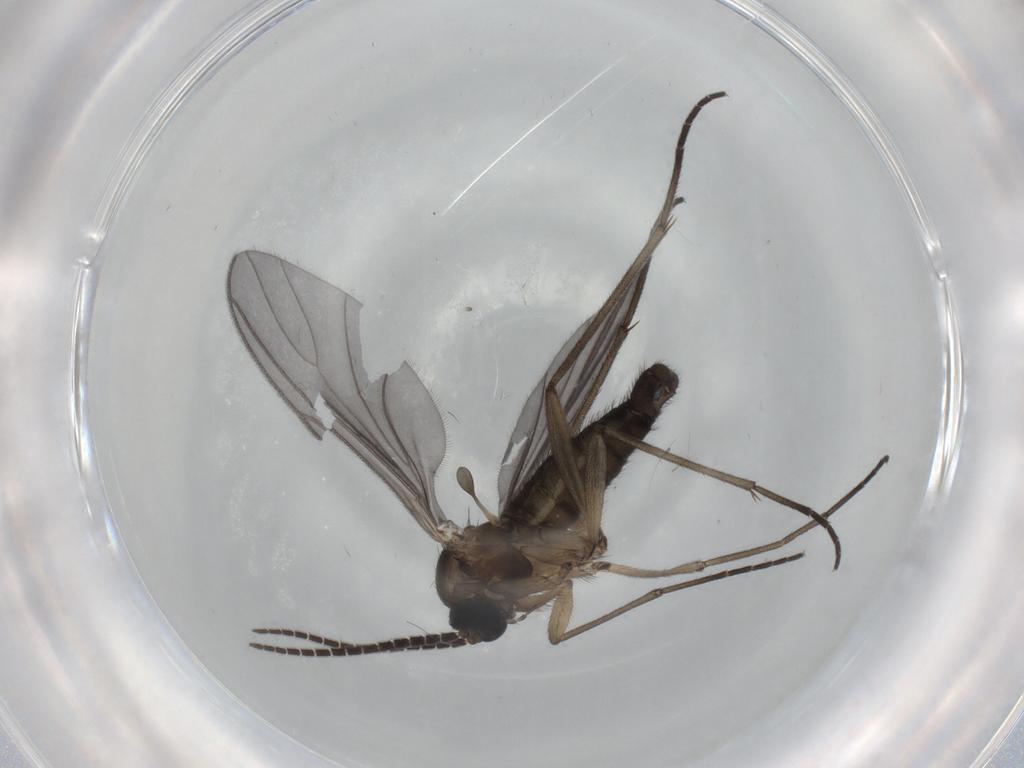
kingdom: Animalia
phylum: Arthropoda
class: Insecta
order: Diptera
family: Sciaridae
